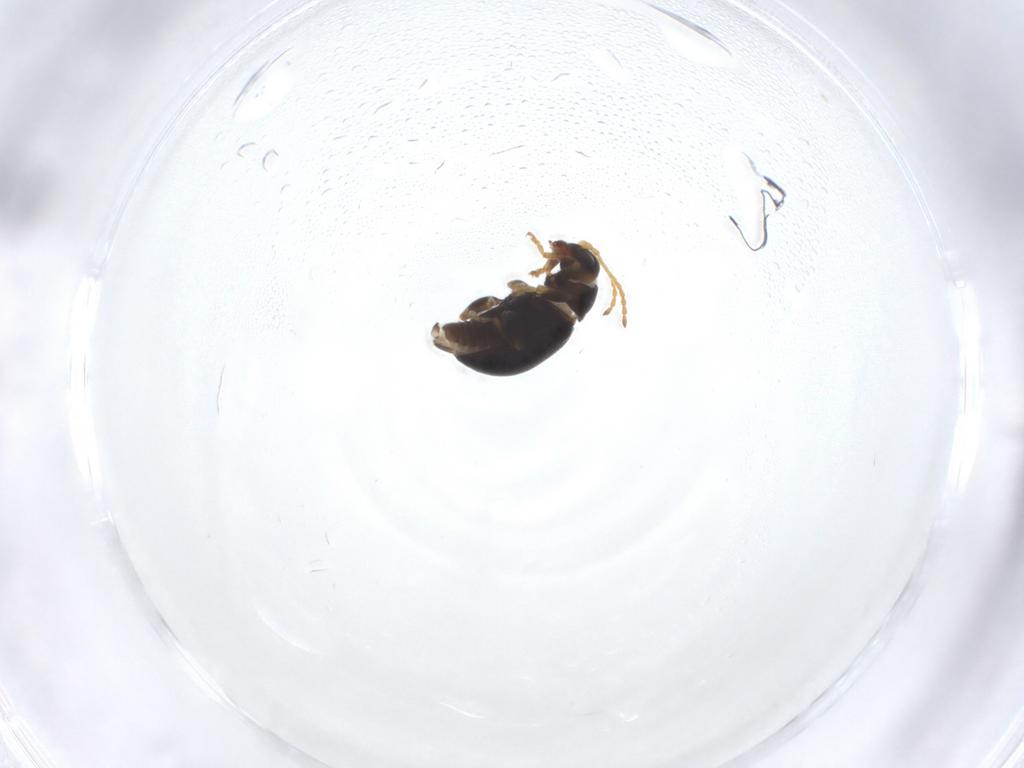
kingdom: Animalia
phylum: Arthropoda
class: Insecta
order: Coleoptera
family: Chrysomelidae
